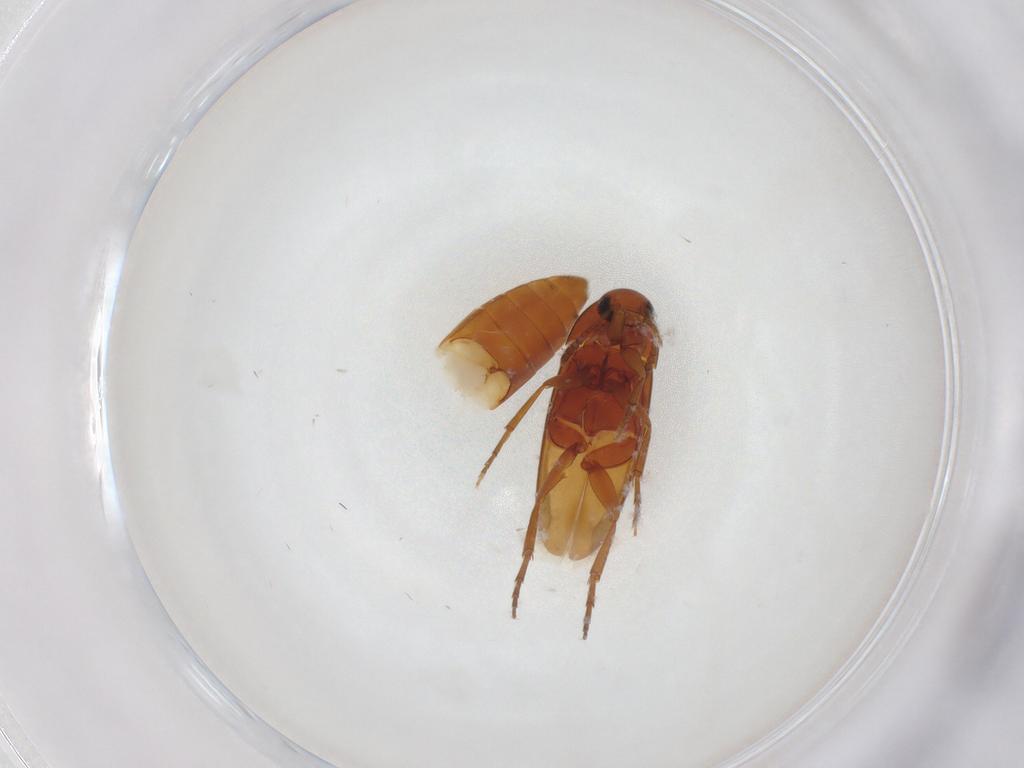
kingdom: Animalia
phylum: Arthropoda
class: Insecta
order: Coleoptera
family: Scraptiidae
